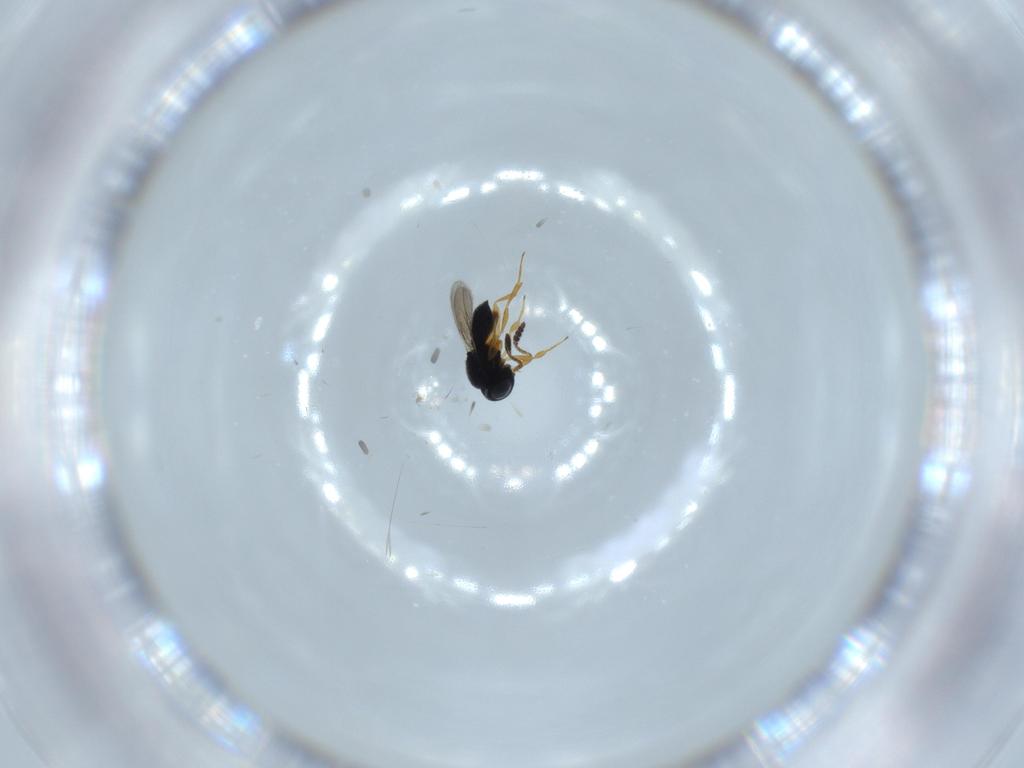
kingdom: Animalia
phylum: Arthropoda
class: Insecta
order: Hymenoptera
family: Scelionidae
